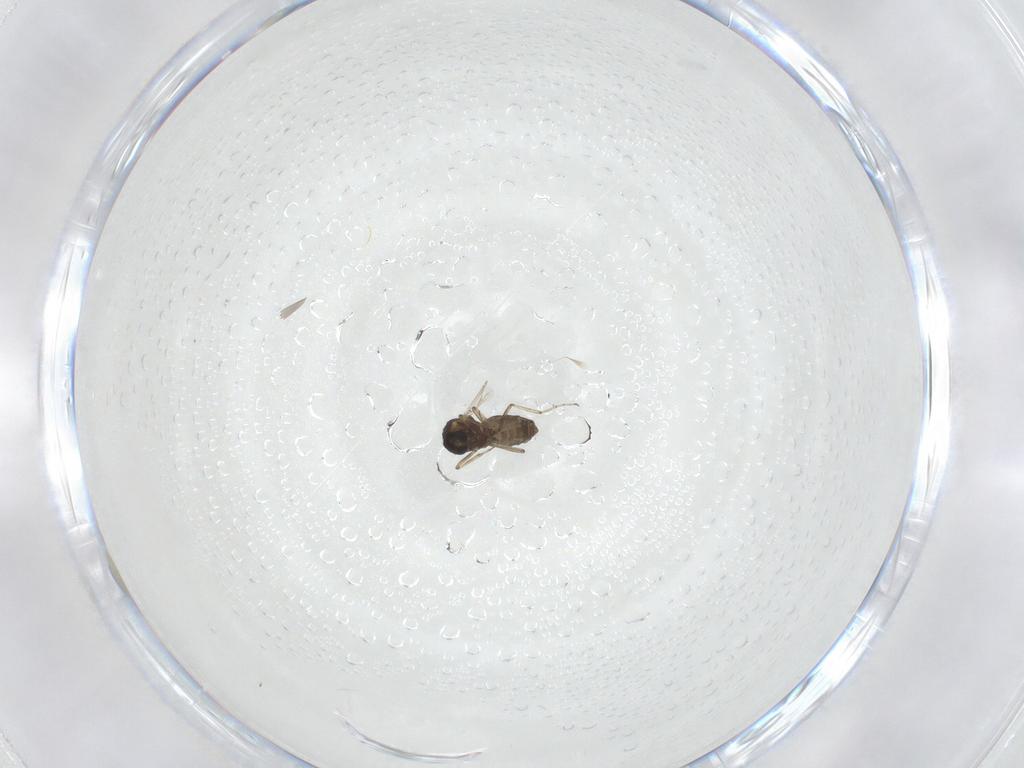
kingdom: Animalia
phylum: Arthropoda
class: Insecta
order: Diptera
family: Ceratopogonidae
